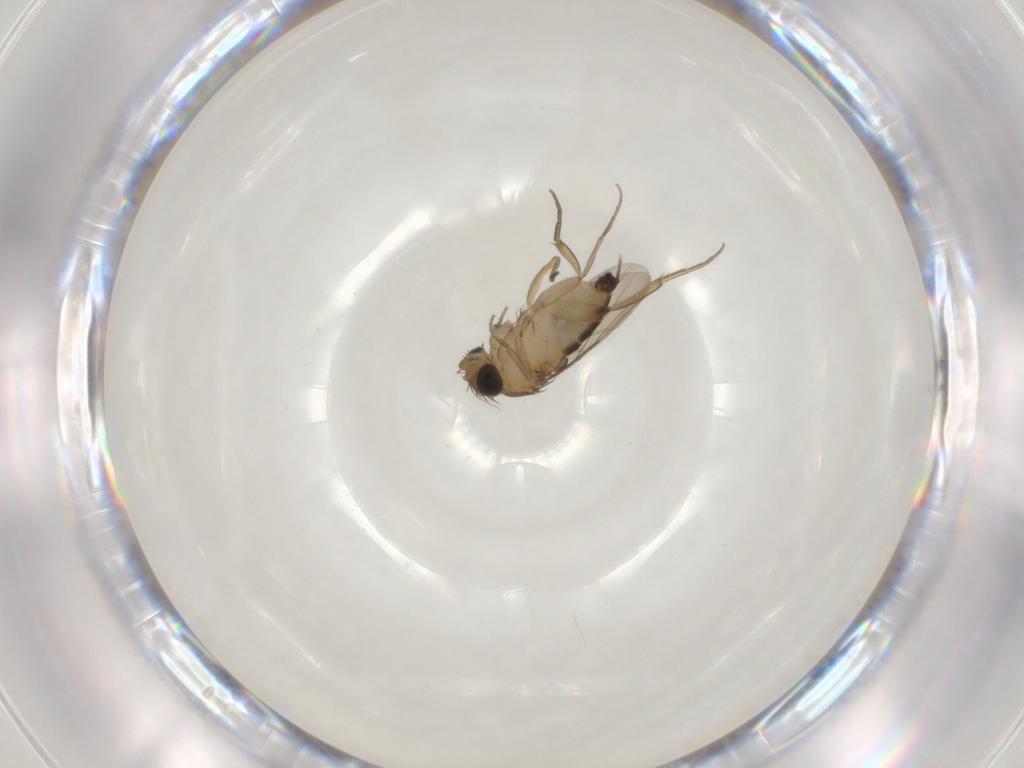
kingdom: Animalia
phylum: Arthropoda
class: Insecta
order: Diptera
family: Phoridae
